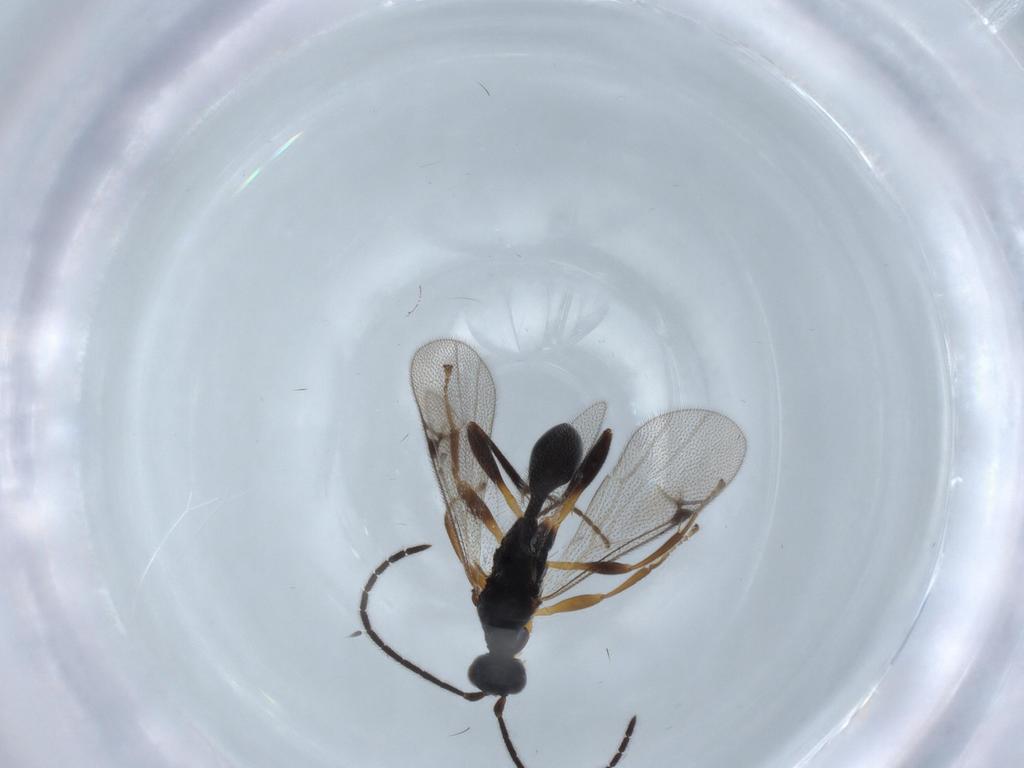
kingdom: Animalia
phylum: Arthropoda
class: Insecta
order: Hymenoptera
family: Proctotrupidae
